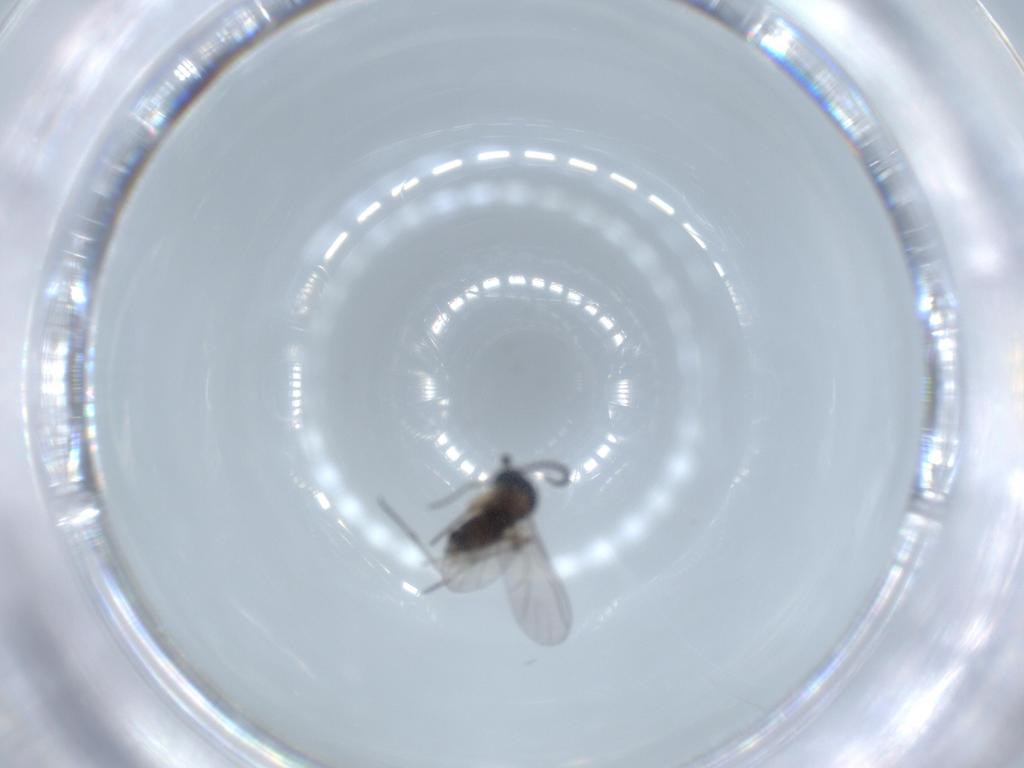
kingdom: Animalia
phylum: Arthropoda
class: Insecta
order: Diptera
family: Sciaridae
